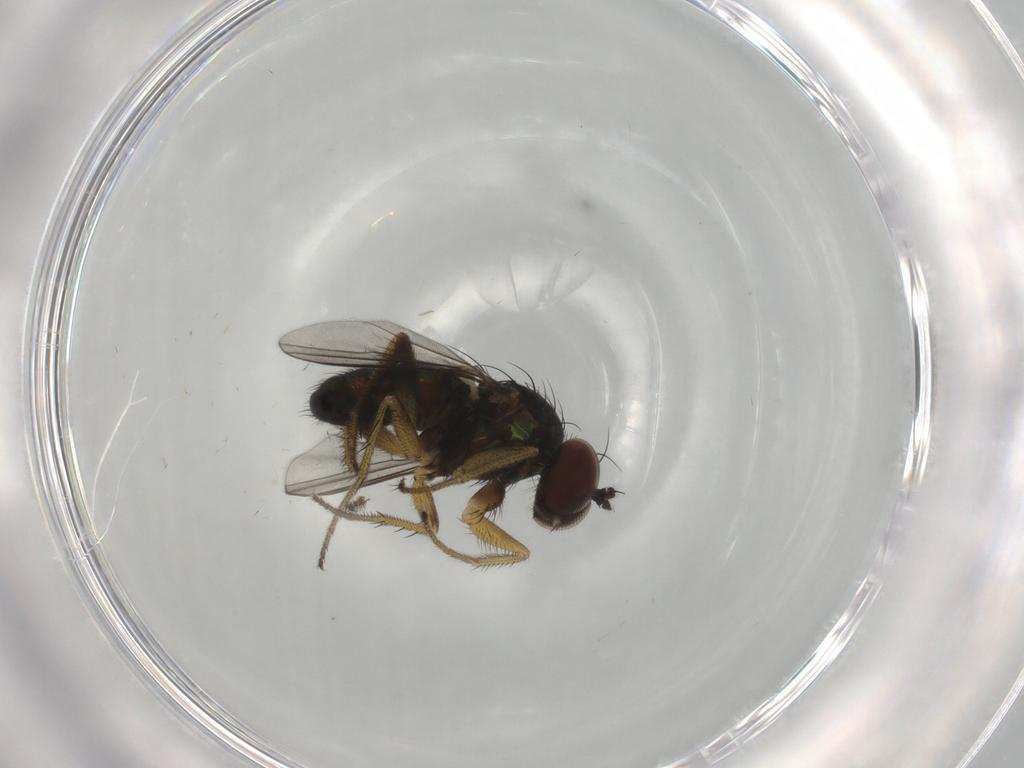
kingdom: Animalia
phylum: Arthropoda
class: Insecta
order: Diptera
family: Dolichopodidae
